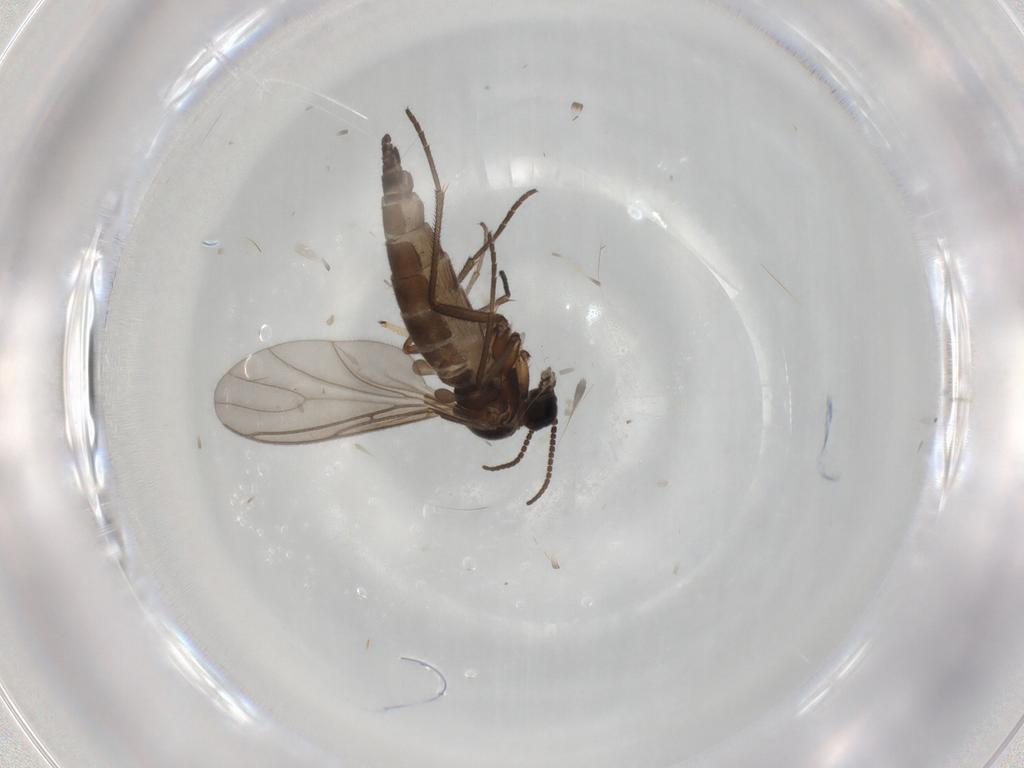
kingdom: Animalia
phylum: Arthropoda
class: Insecta
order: Diptera
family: Sciaridae
